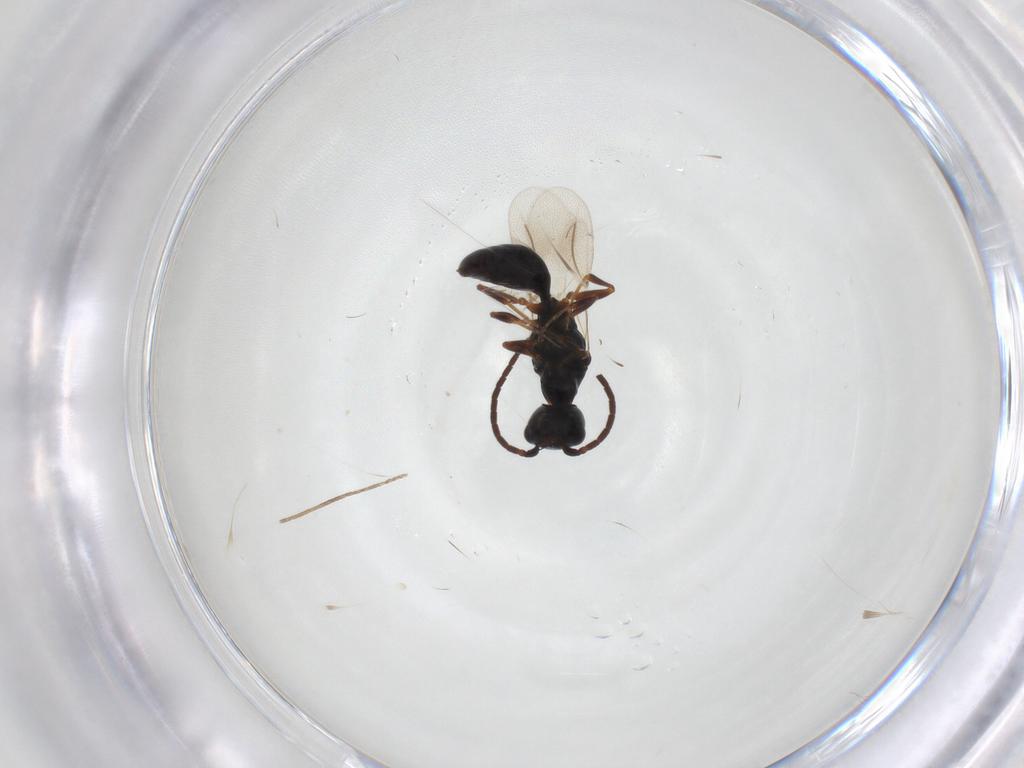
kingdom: Animalia
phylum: Arthropoda
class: Insecta
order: Hymenoptera
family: Bethylidae
